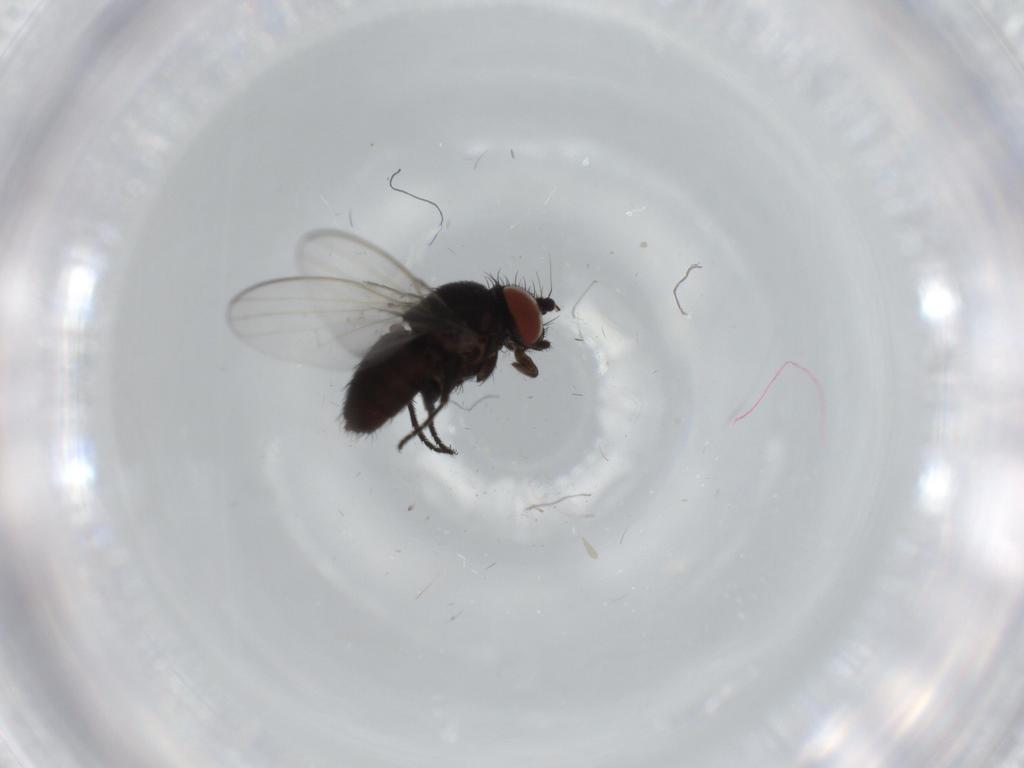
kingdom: Animalia
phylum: Arthropoda
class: Insecta
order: Diptera
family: Milichiidae
